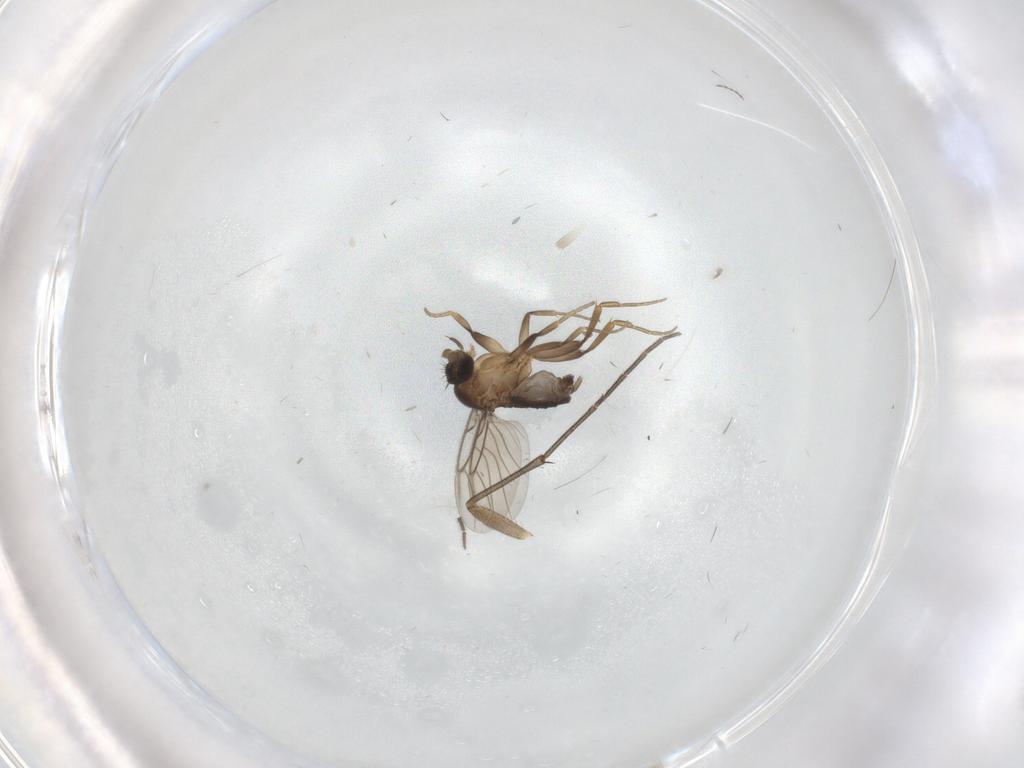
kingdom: Animalia
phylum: Arthropoda
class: Insecta
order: Diptera
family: Mycetophilidae
